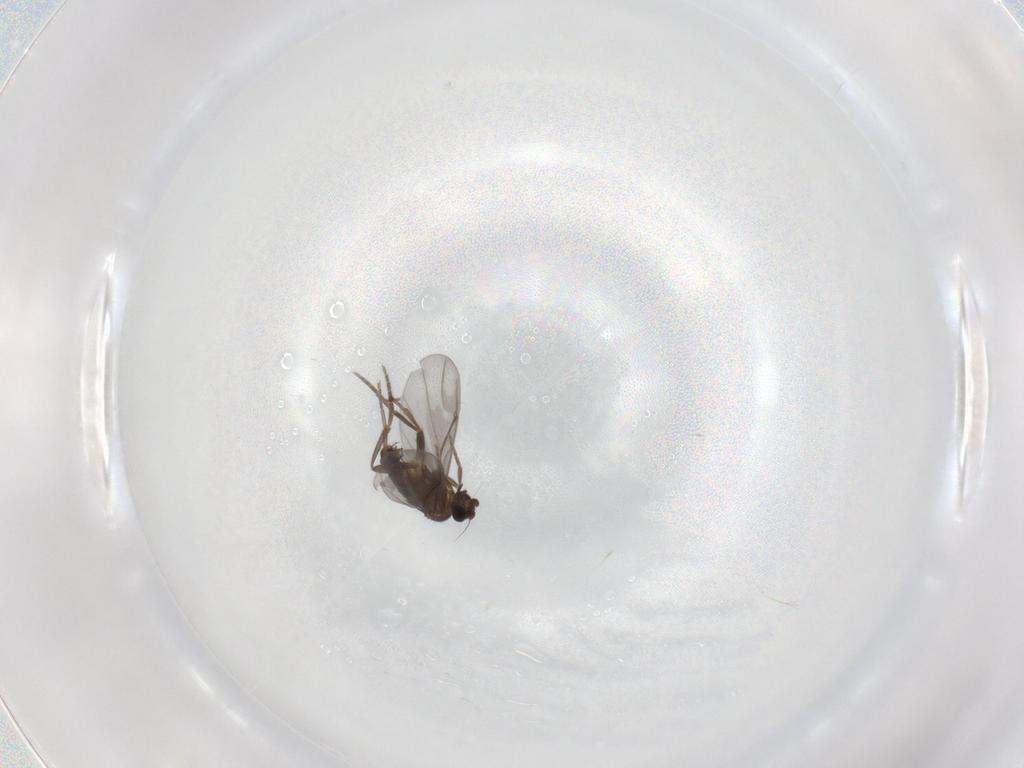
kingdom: Animalia
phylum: Arthropoda
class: Insecta
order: Diptera
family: Phoridae
